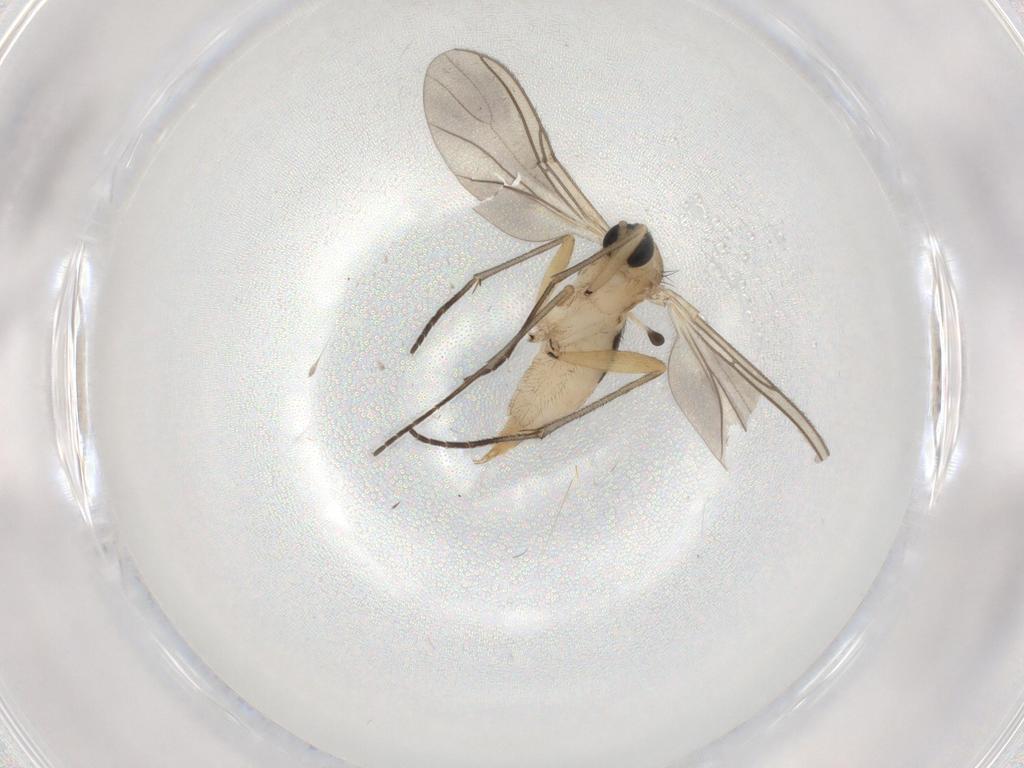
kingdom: Animalia
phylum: Arthropoda
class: Insecta
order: Diptera
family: Sciaridae
